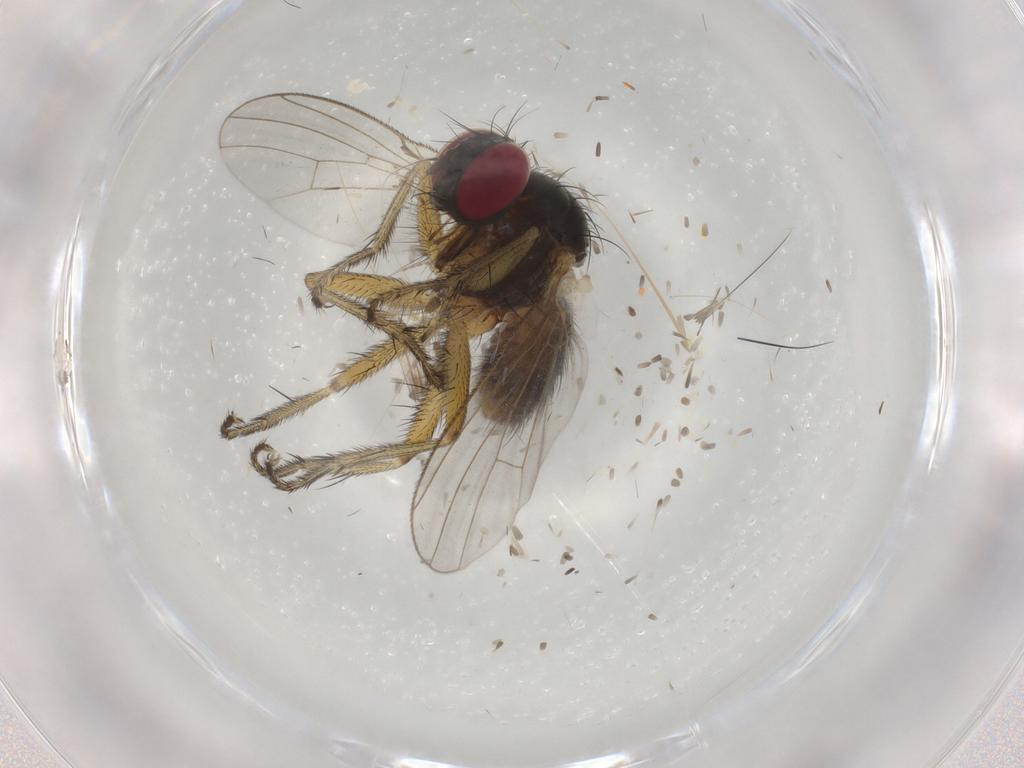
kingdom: Animalia
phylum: Arthropoda
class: Insecta
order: Diptera
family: Muscidae
